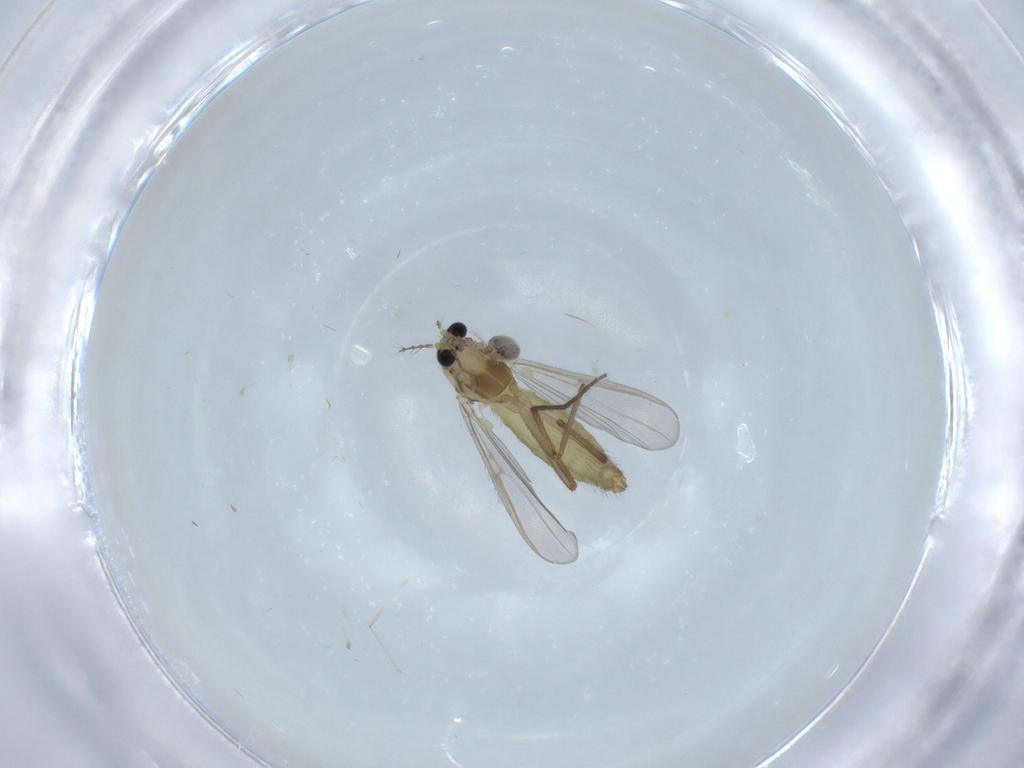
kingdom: Animalia
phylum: Arthropoda
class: Insecta
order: Diptera
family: Chironomidae
